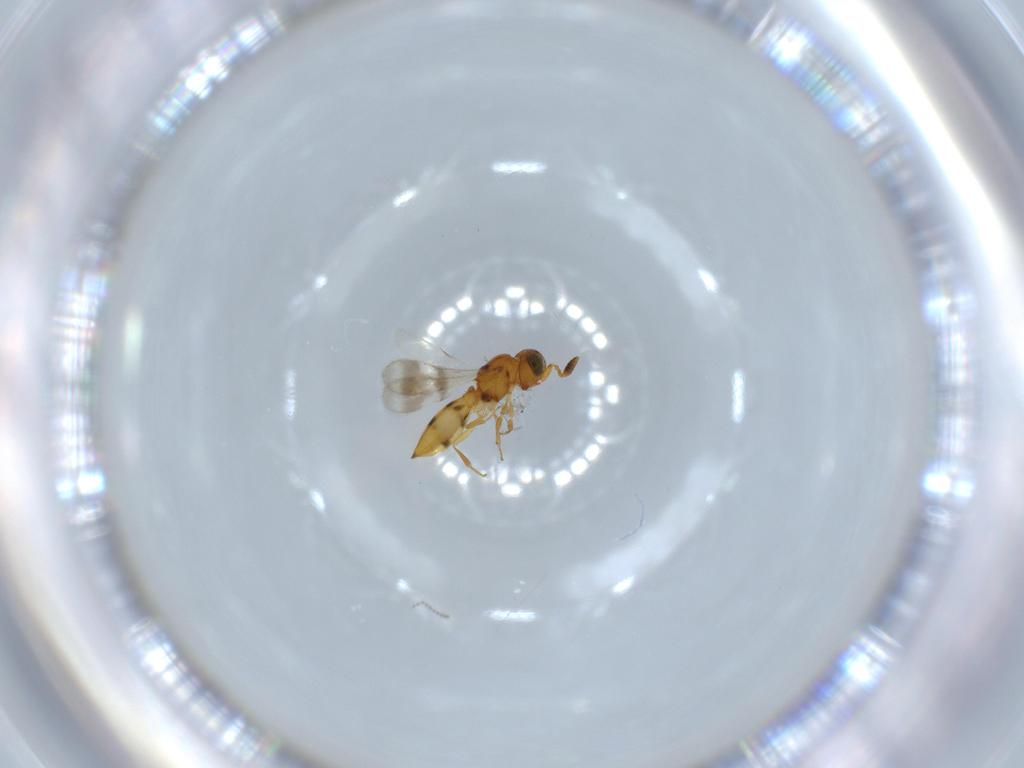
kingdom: Animalia
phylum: Arthropoda
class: Insecta
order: Hymenoptera
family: Scelionidae
